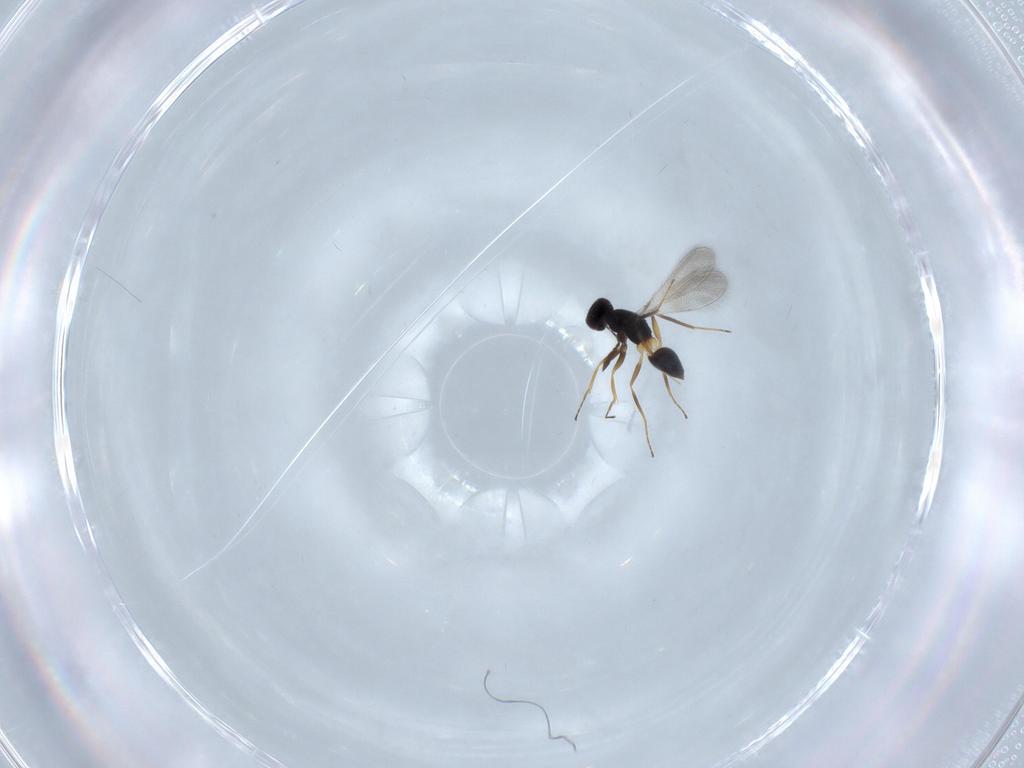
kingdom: Animalia
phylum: Arthropoda
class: Insecta
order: Hymenoptera
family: Mymaridae
